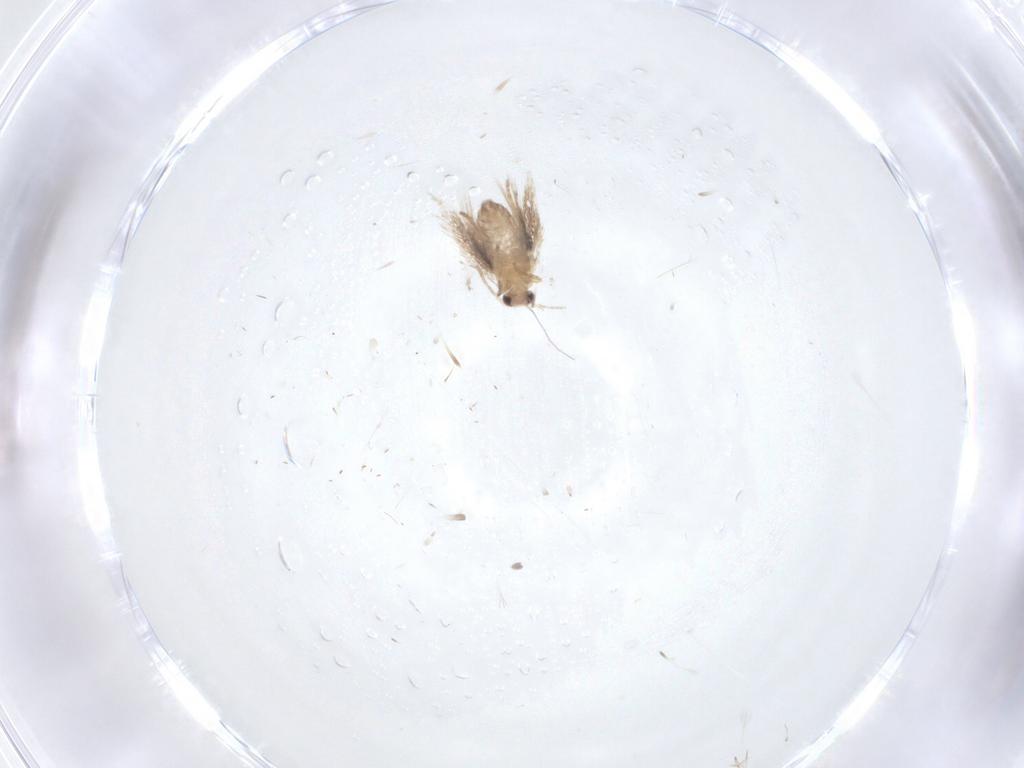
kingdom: Animalia
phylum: Arthropoda
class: Insecta
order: Lepidoptera
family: Nepticulidae
